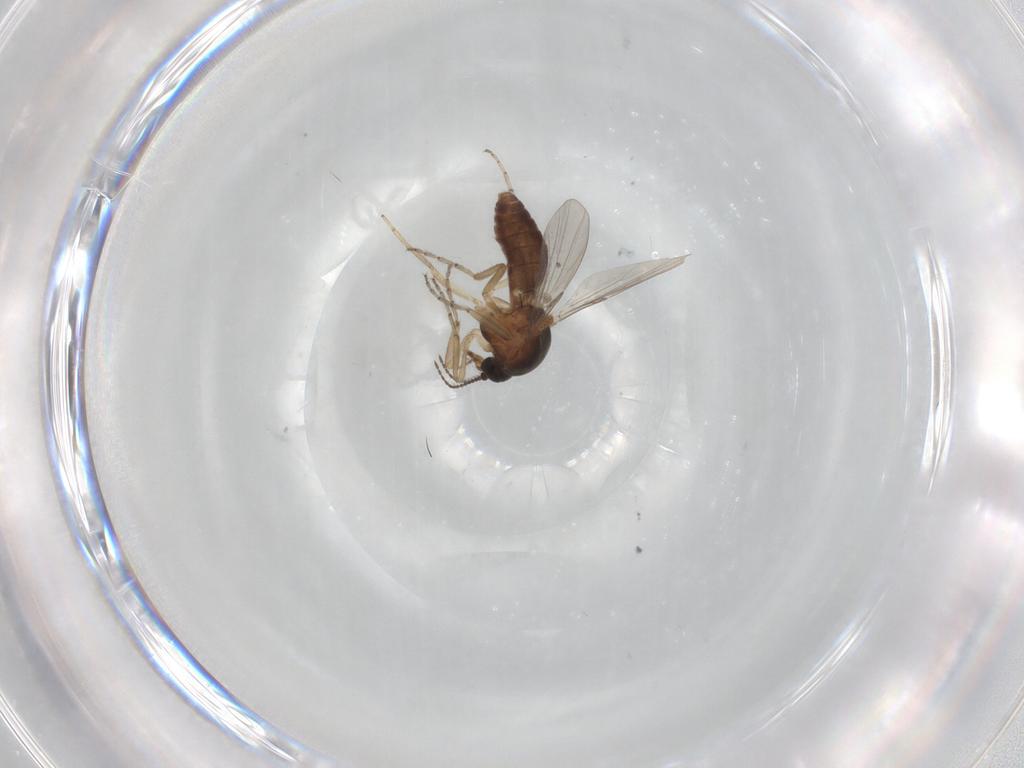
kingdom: Animalia
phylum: Arthropoda
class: Insecta
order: Diptera
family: Ceratopogonidae
